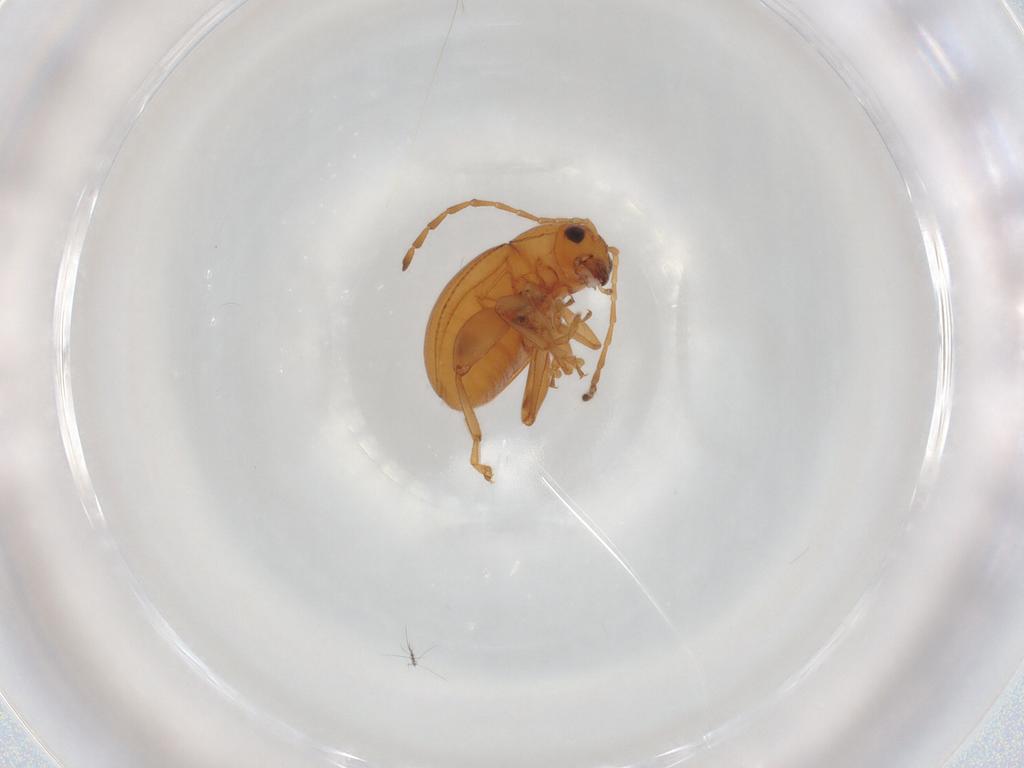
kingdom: Animalia
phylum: Arthropoda
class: Insecta
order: Coleoptera
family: Chrysomelidae
